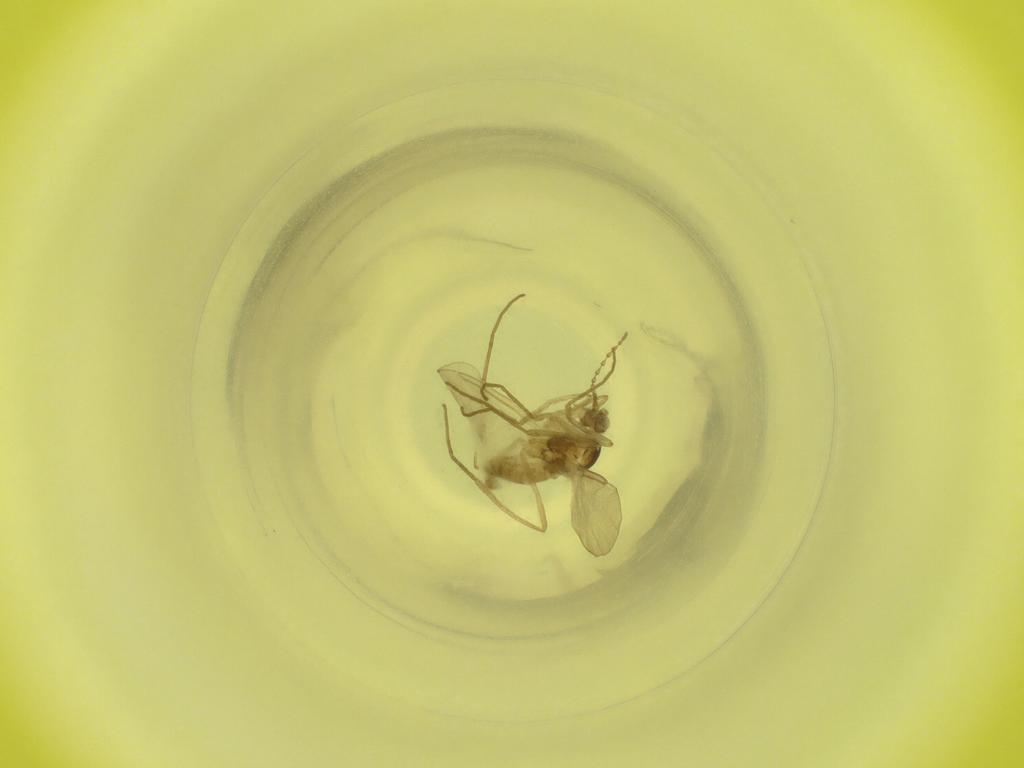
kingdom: Animalia
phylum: Arthropoda
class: Insecta
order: Diptera
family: Cecidomyiidae
